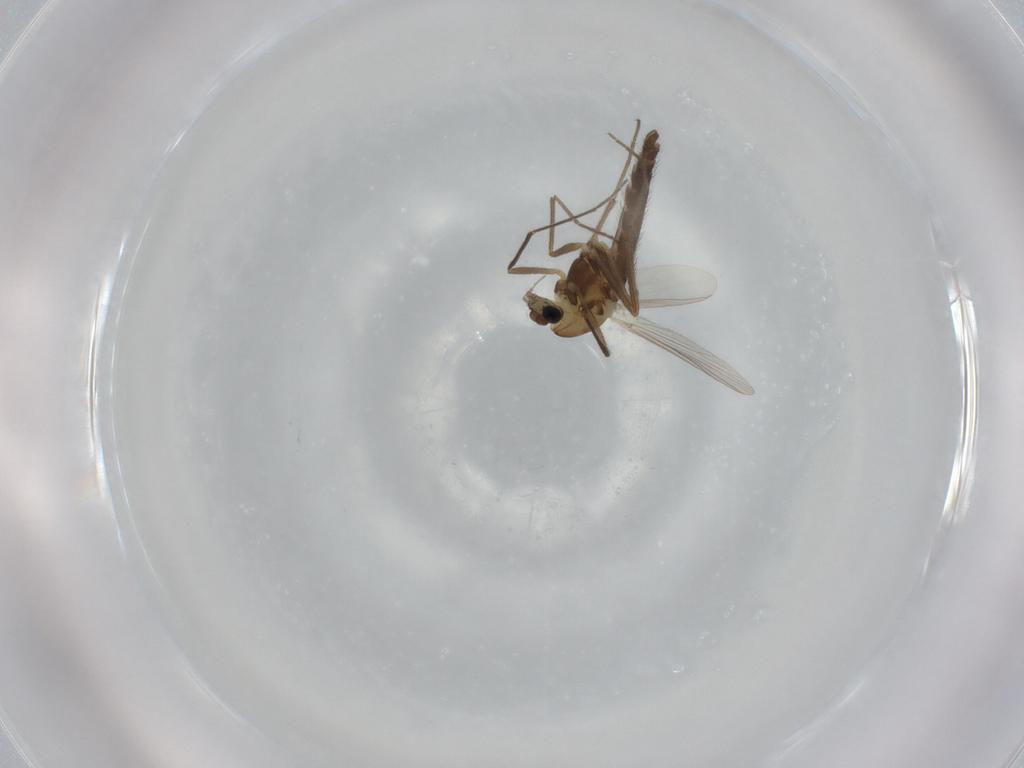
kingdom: Animalia
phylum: Arthropoda
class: Insecta
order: Diptera
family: Chironomidae
